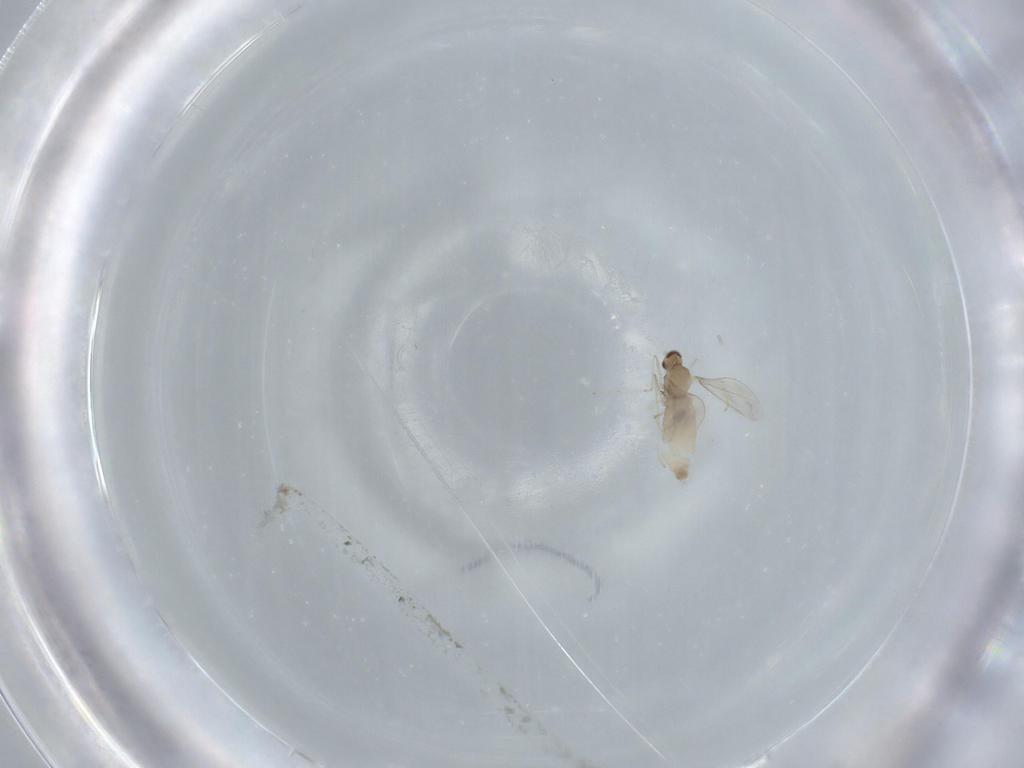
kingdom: Animalia
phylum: Arthropoda
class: Insecta
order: Diptera
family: Cecidomyiidae
